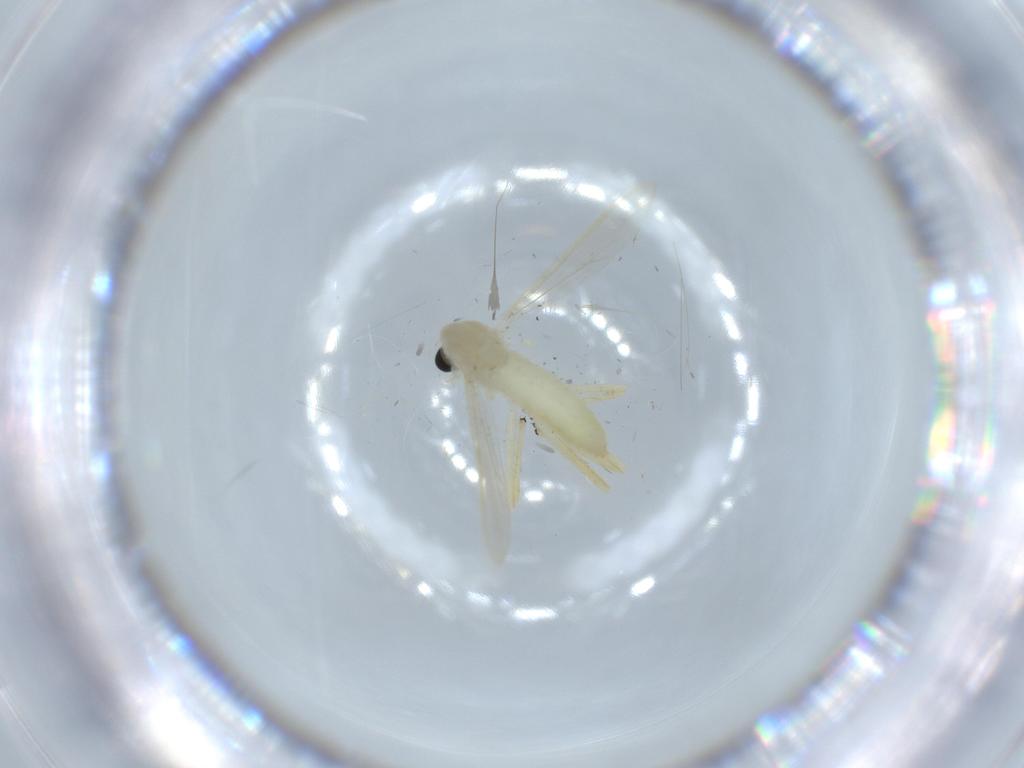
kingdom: Animalia
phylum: Arthropoda
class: Insecta
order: Diptera
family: Chironomidae
